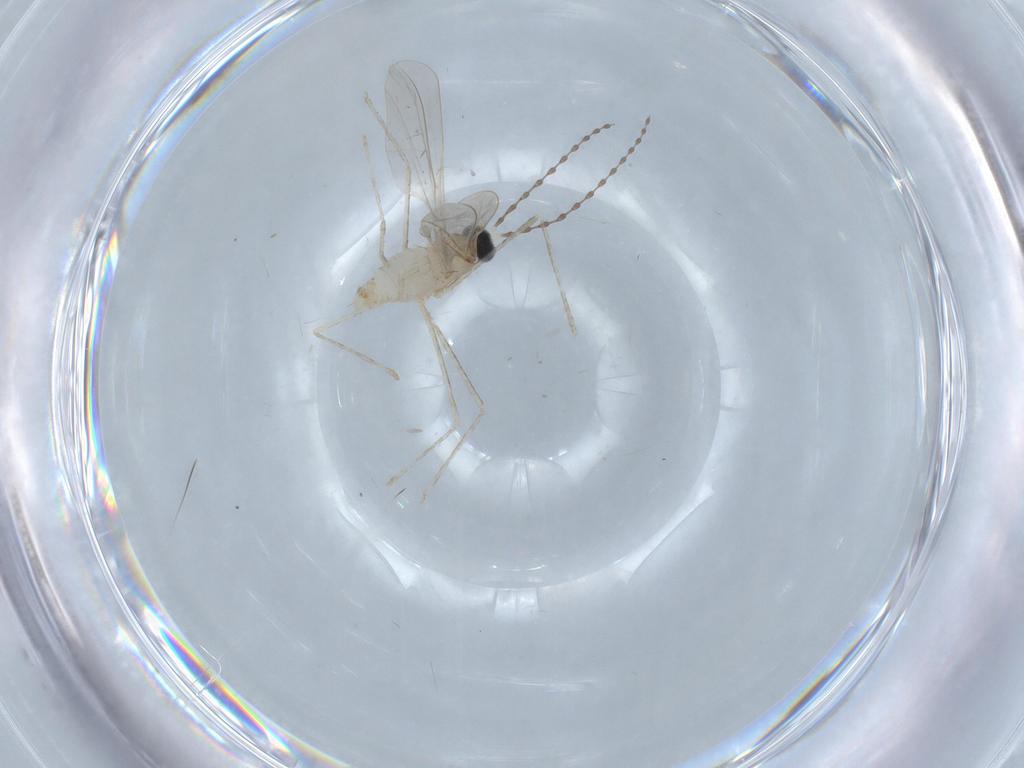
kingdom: Animalia
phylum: Arthropoda
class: Insecta
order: Diptera
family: Cecidomyiidae
